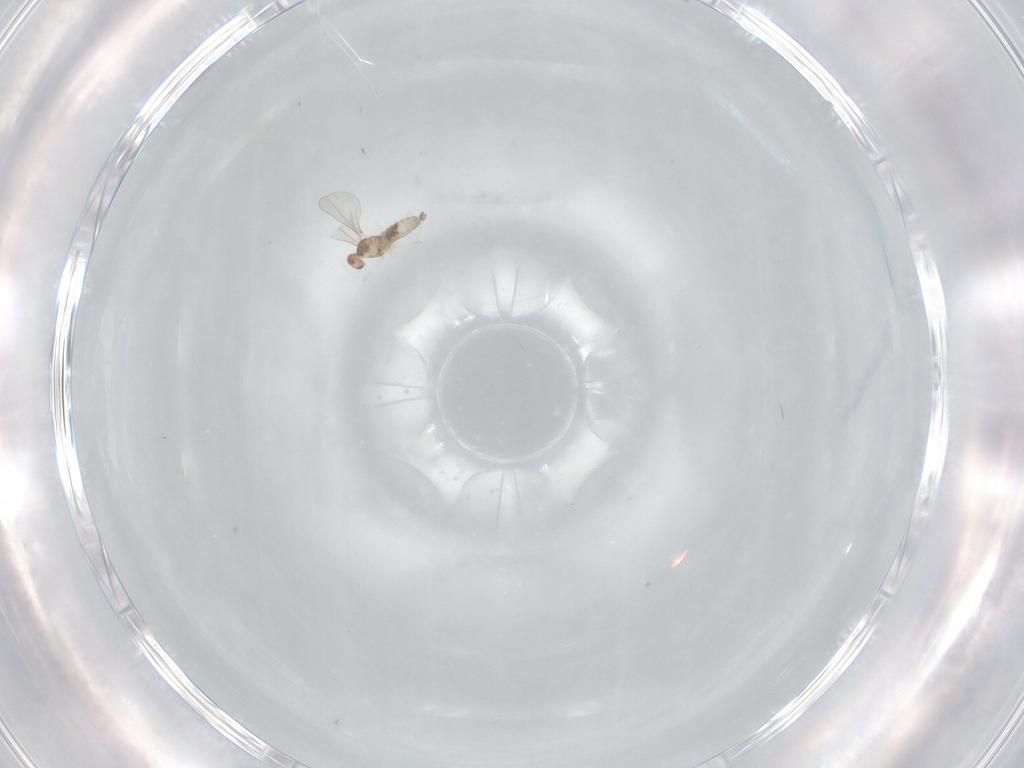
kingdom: Animalia
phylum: Arthropoda
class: Insecta
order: Diptera
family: Cecidomyiidae
